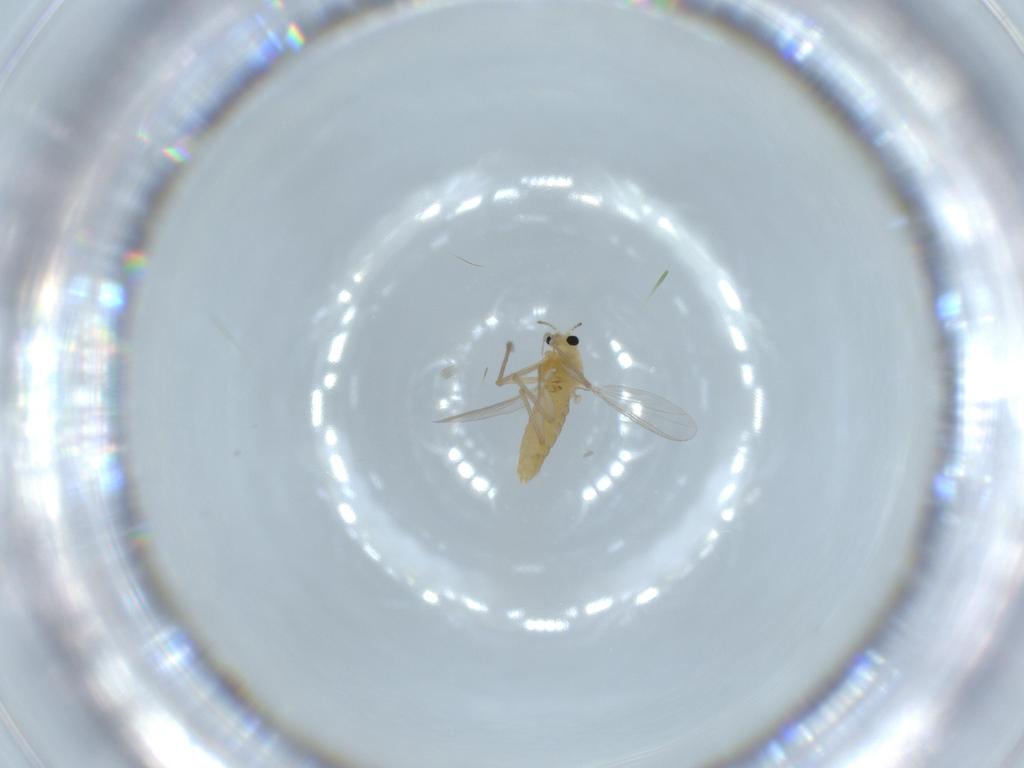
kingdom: Animalia
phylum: Arthropoda
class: Insecta
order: Diptera
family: Chironomidae
